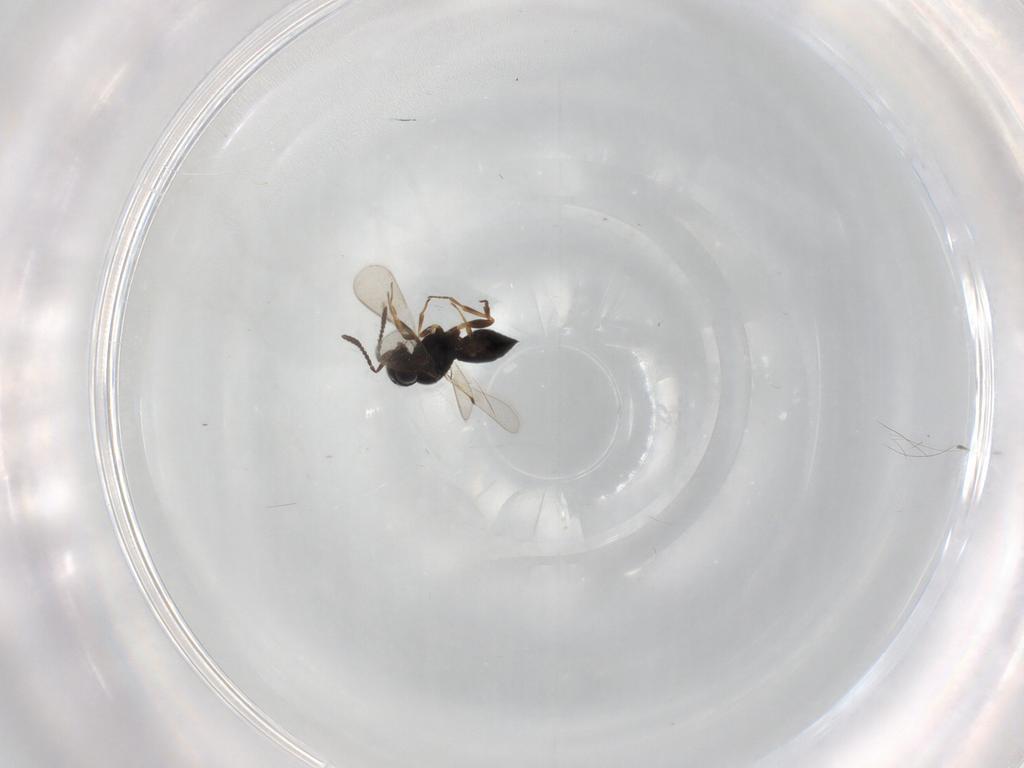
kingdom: Animalia
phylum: Arthropoda
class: Insecta
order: Hymenoptera
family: Scelionidae
